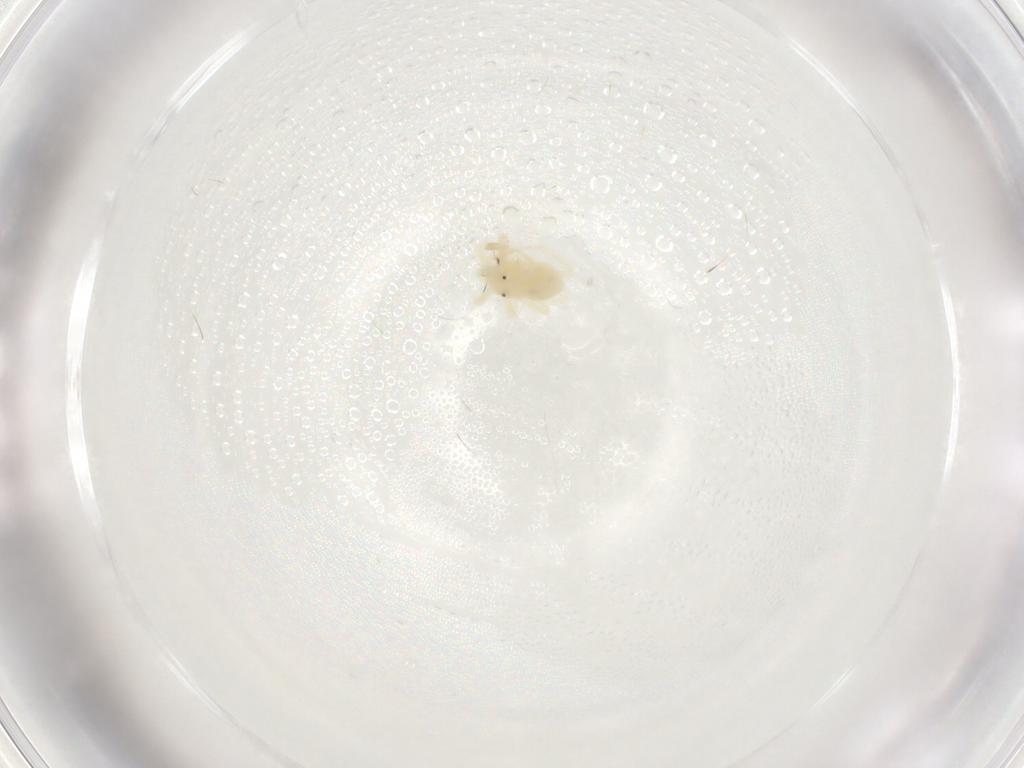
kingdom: Animalia
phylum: Arthropoda
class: Arachnida
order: Trombidiformes
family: Anystidae
